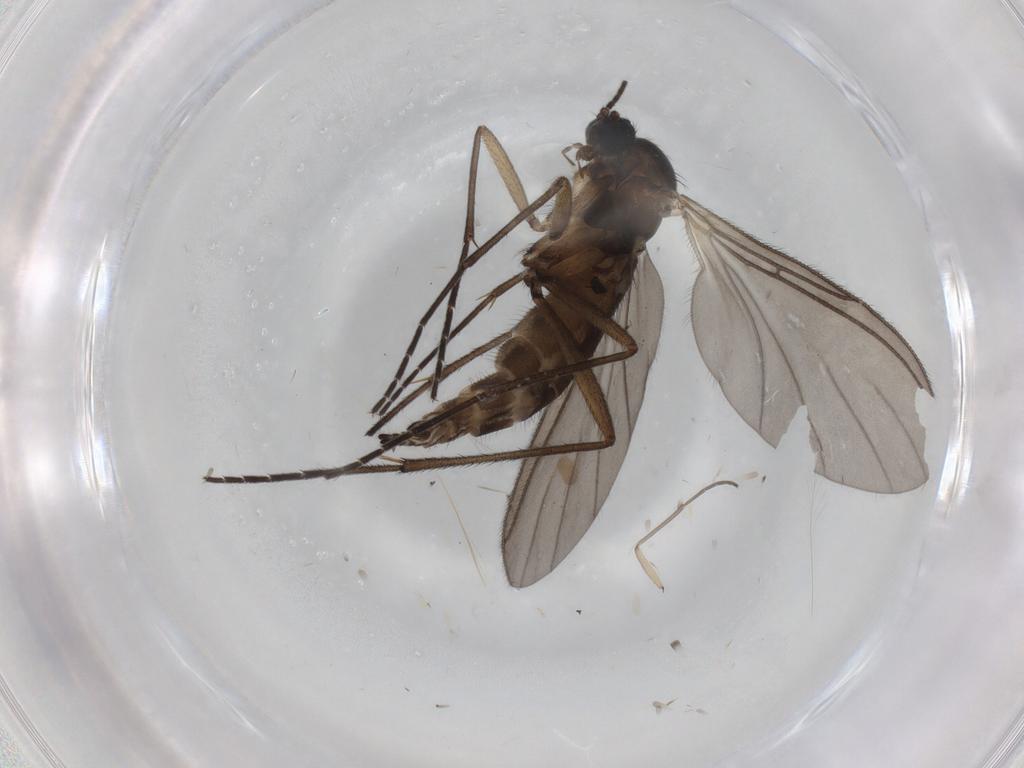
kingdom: Animalia
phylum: Arthropoda
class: Insecta
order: Diptera
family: Sciaridae
